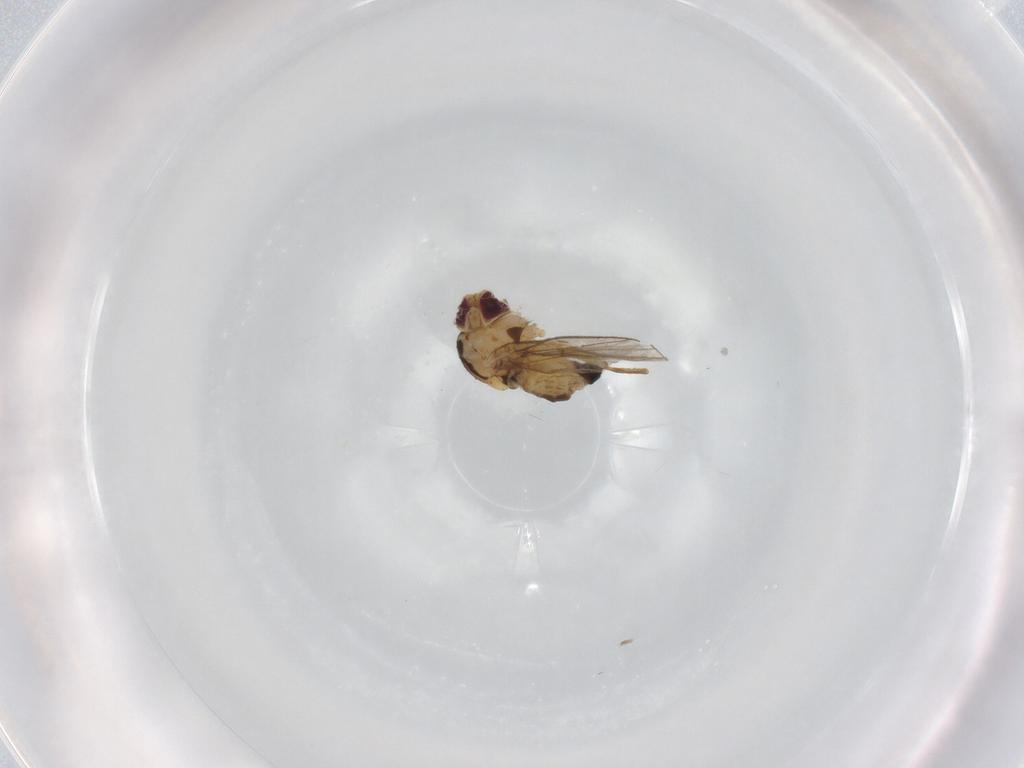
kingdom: Animalia
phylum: Arthropoda
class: Insecta
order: Diptera
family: Agromyzidae
